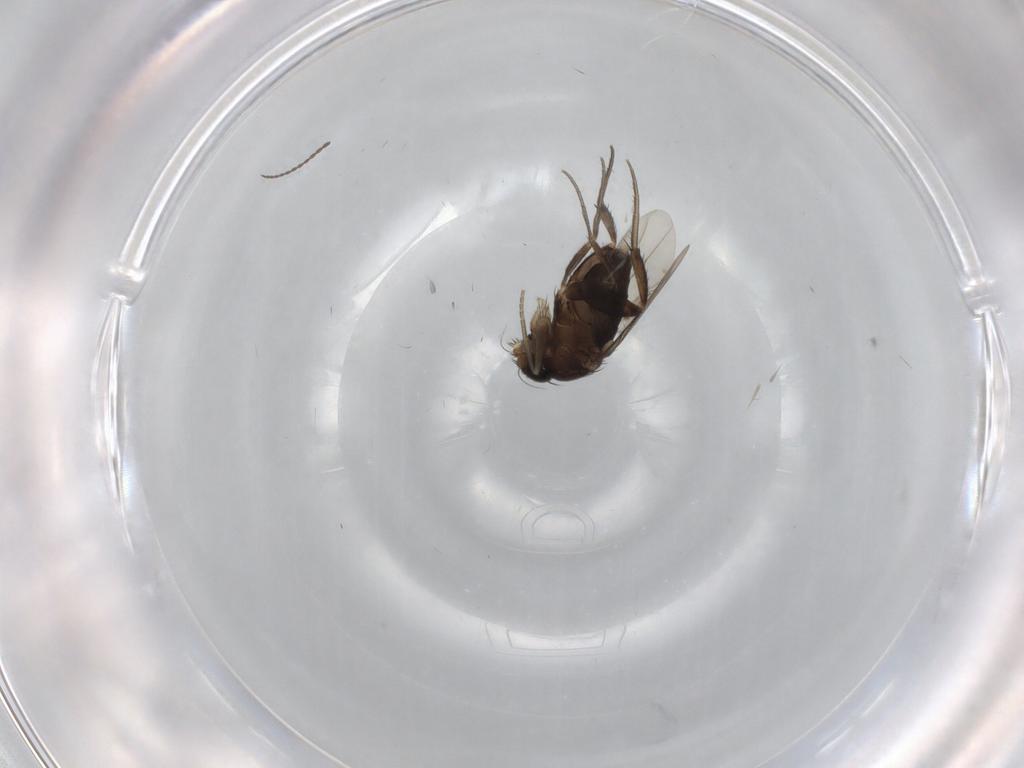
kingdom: Animalia
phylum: Arthropoda
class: Insecta
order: Diptera
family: Phoridae
